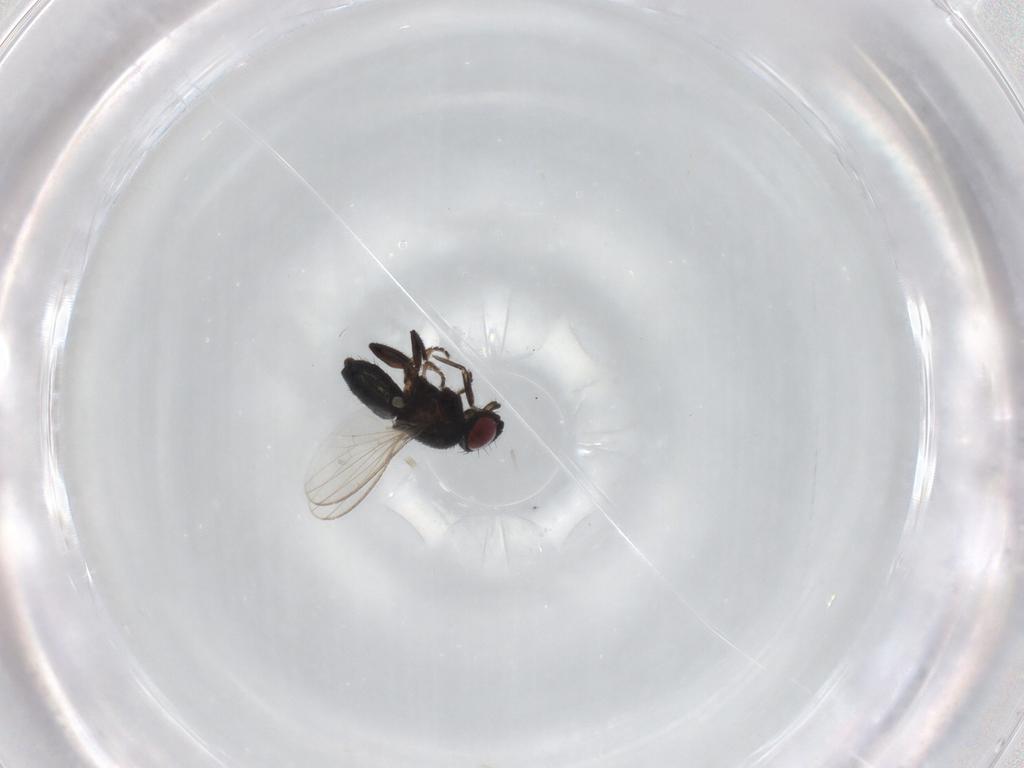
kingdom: Animalia
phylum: Arthropoda
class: Insecta
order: Diptera
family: Milichiidae
